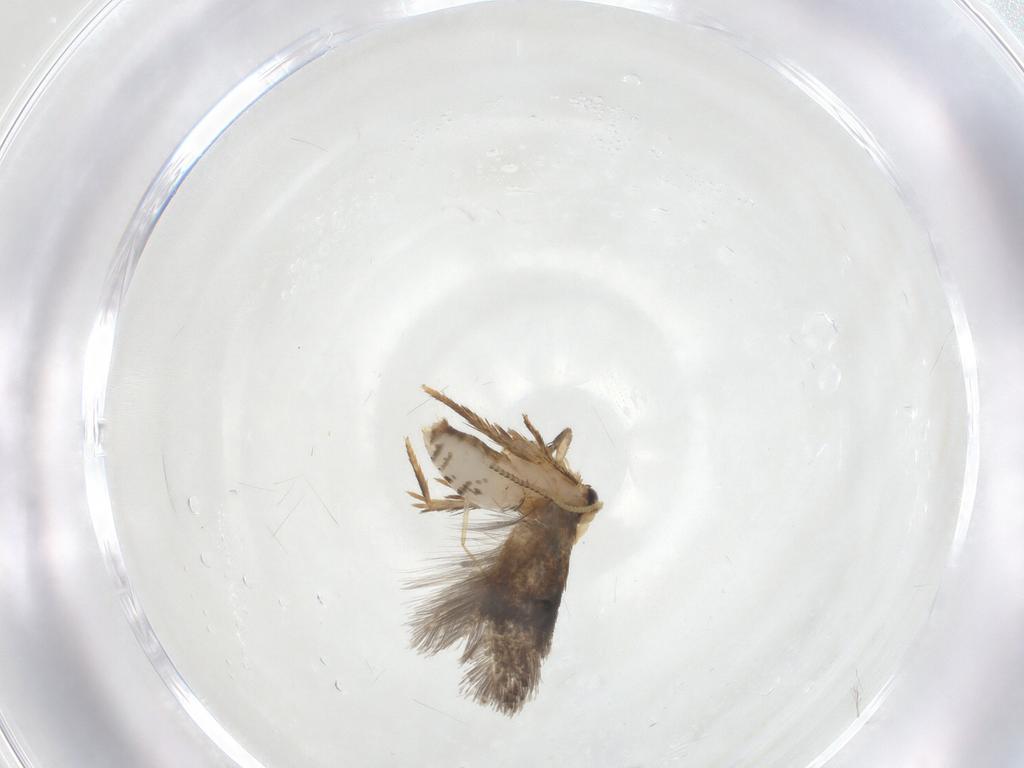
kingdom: Animalia
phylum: Arthropoda
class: Insecta
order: Lepidoptera
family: Nepticulidae
